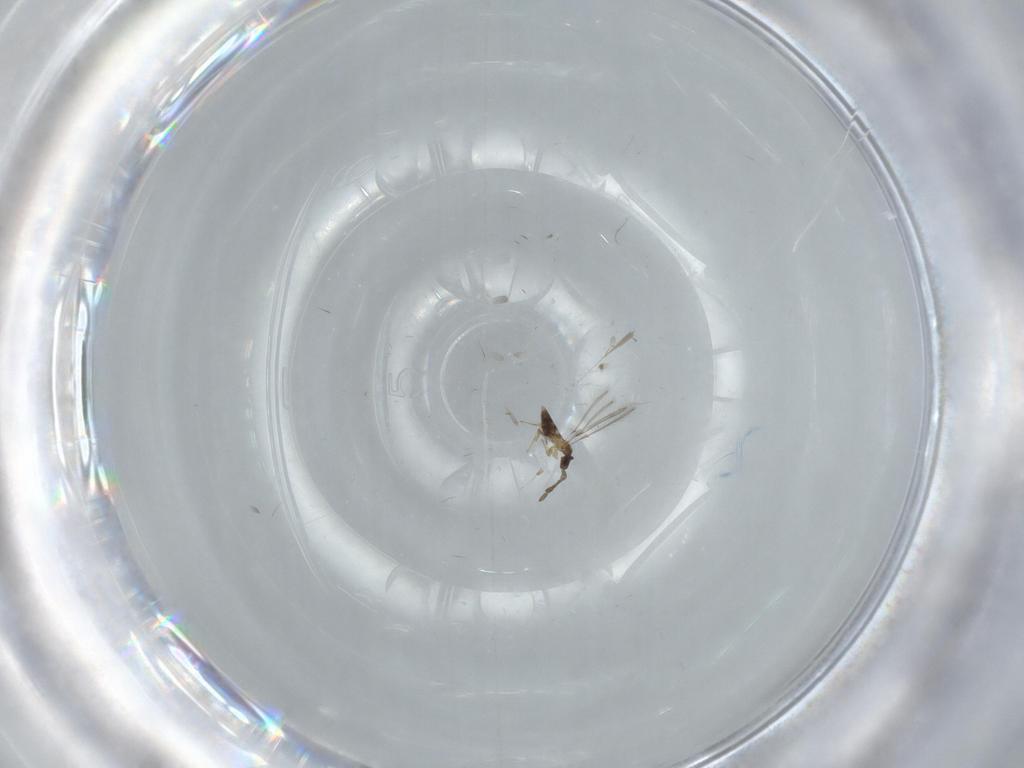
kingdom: Animalia
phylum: Arthropoda
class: Insecta
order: Hymenoptera
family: Mymaridae
